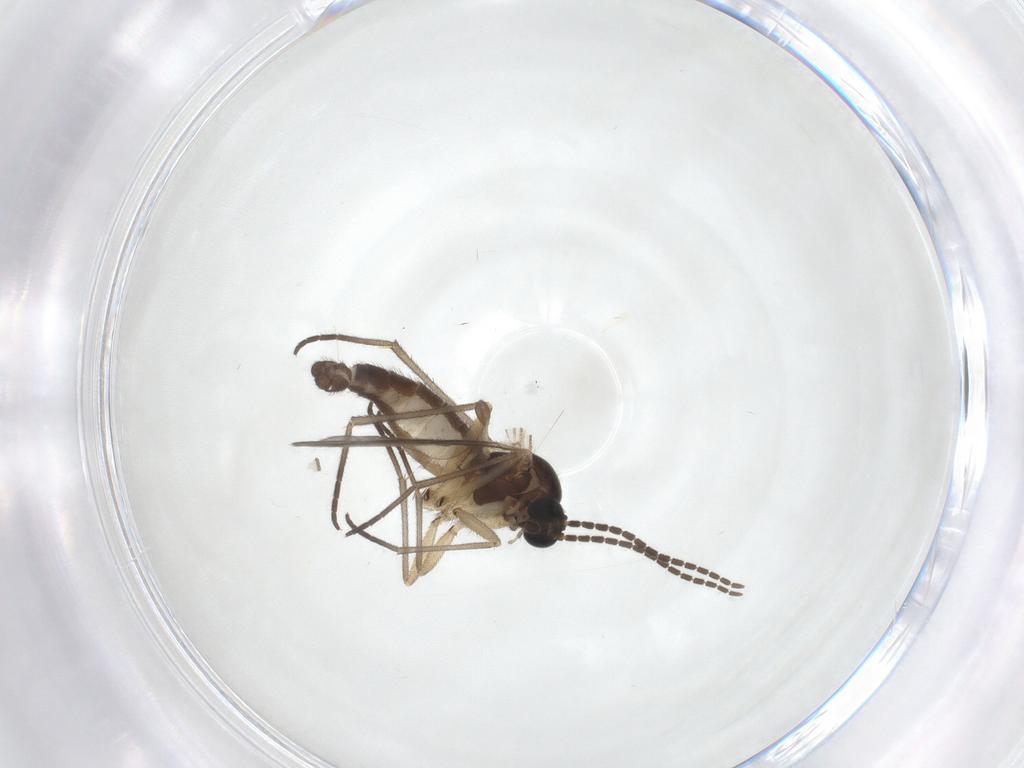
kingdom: Animalia
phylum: Arthropoda
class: Insecta
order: Diptera
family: Sciaridae
